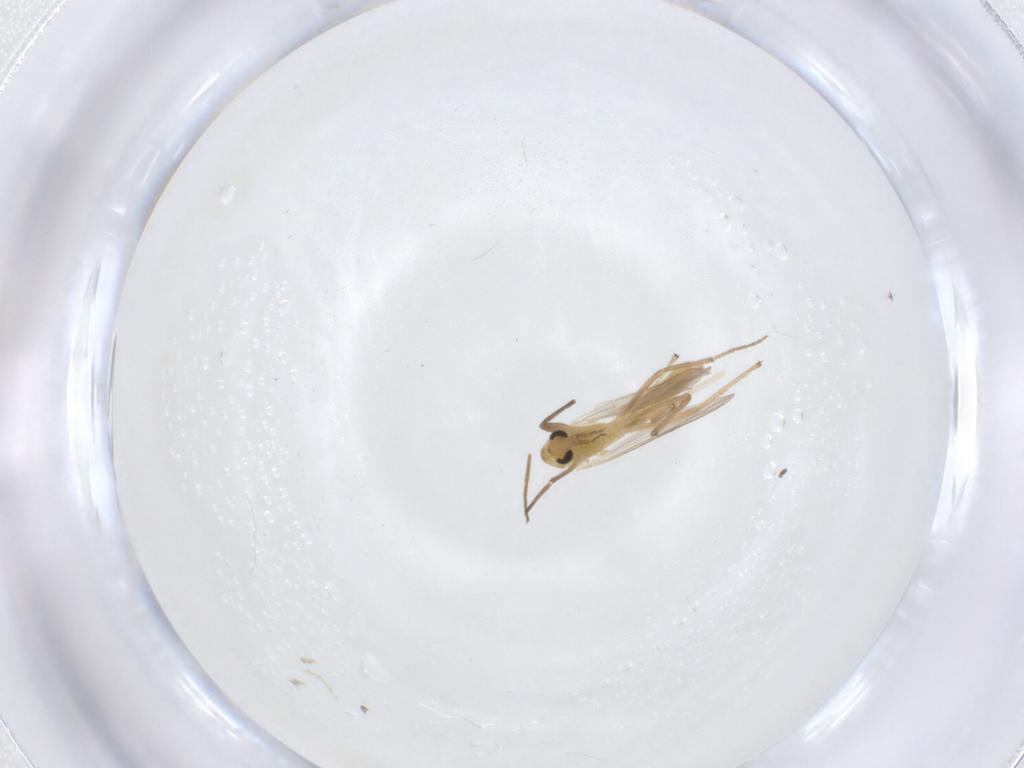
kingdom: Animalia
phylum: Arthropoda
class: Insecta
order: Diptera
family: Chironomidae
